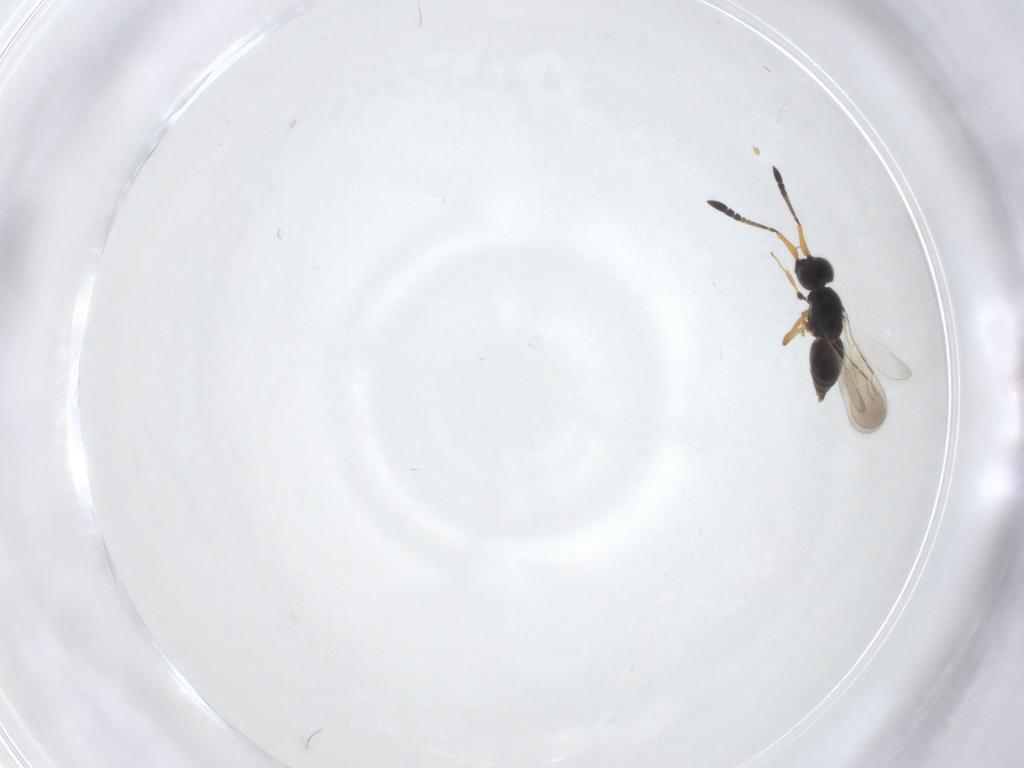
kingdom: Animalia
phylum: Arthropoda
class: Insecta
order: Hymenoptera
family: Ceraphronidae
